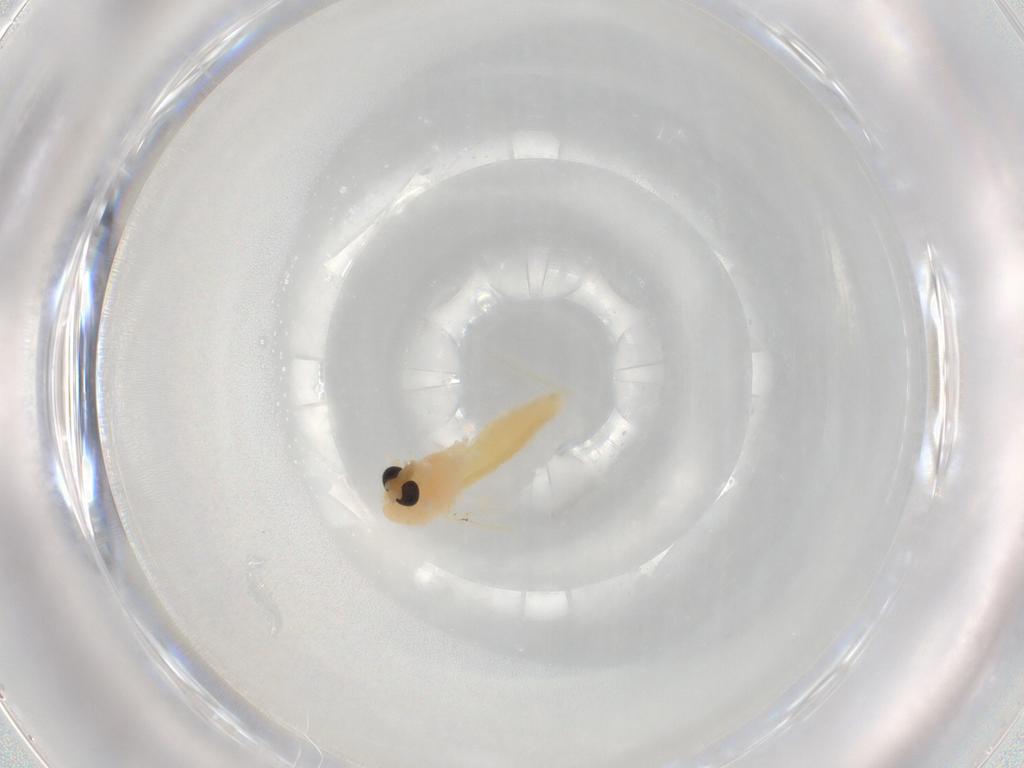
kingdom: Animalia
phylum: Arthropoda
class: Insecta
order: Diptera
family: Chironomidae
